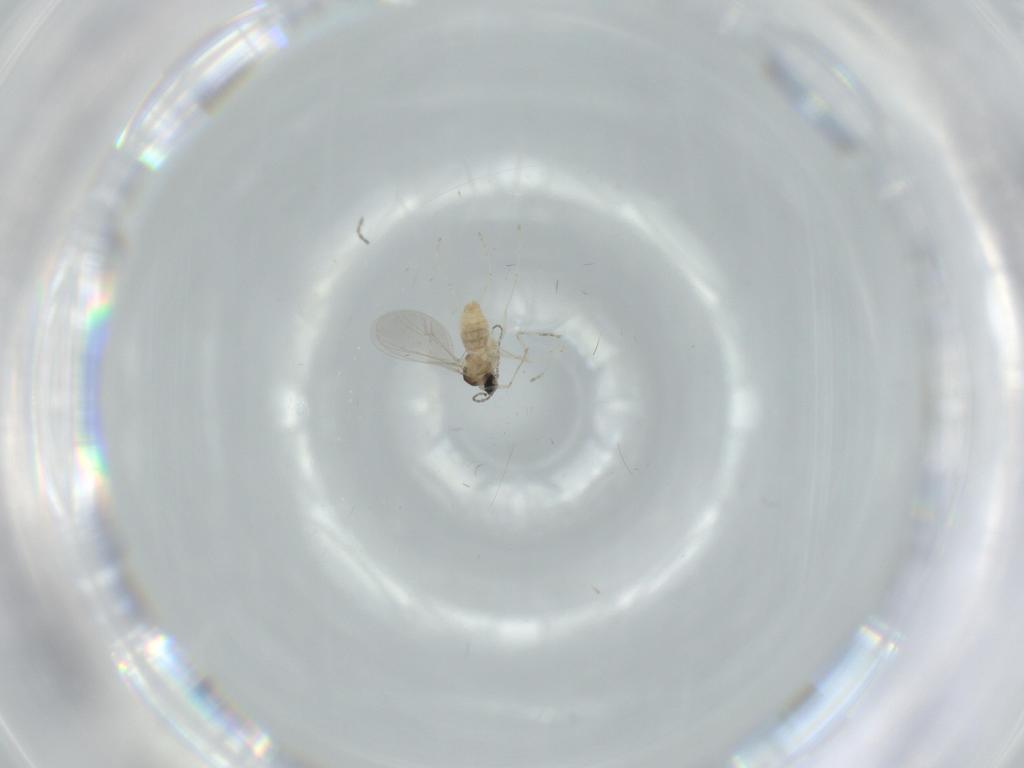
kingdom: Animalia
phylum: Arthropoda
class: Insecta
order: Diptera
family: Cecidomyiidae
